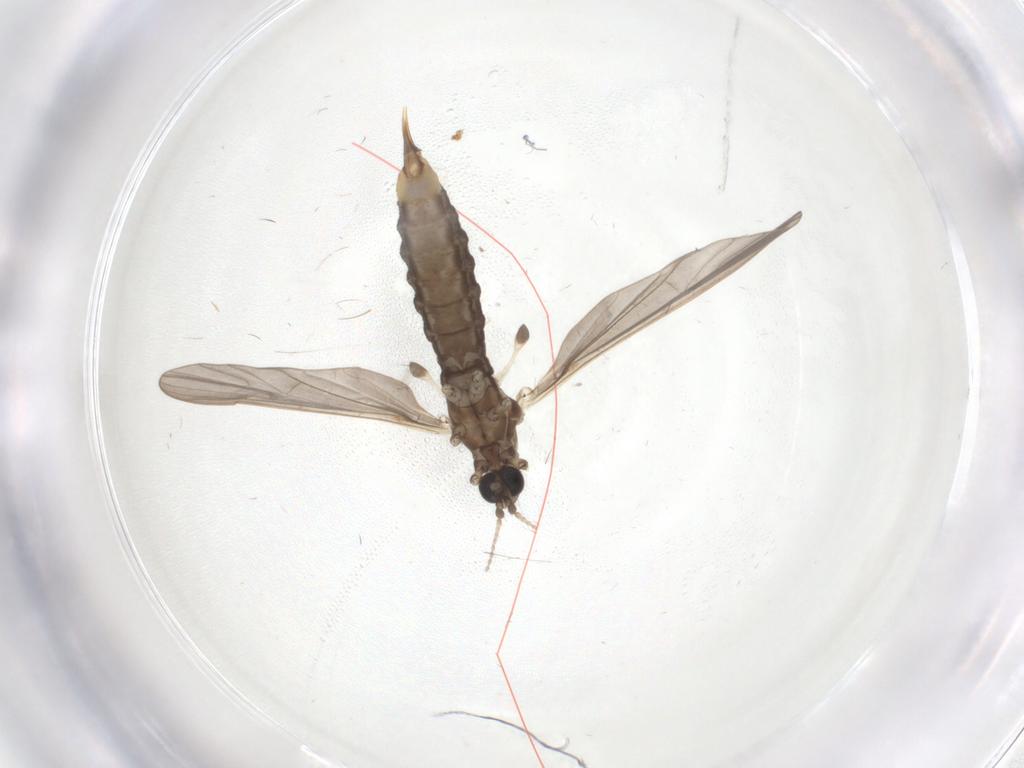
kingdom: Animalia
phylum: Arthropoda
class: Insecta
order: Diptera
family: Limoniidae
